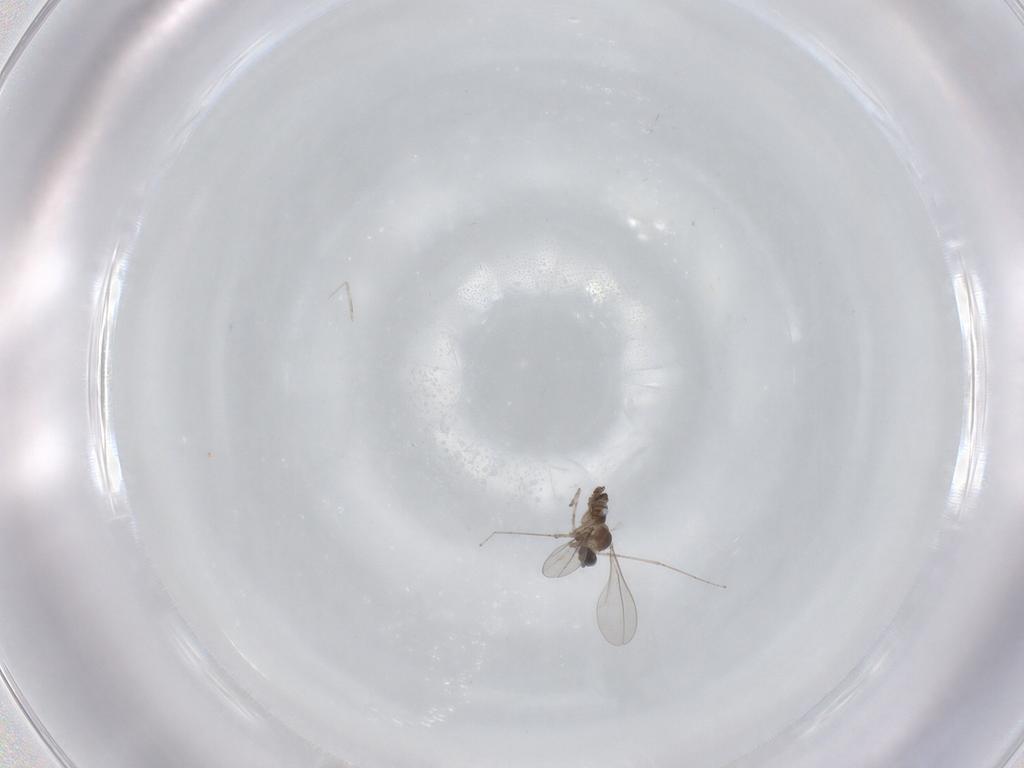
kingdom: Animalia
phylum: Arthropoda
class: Insecta
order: Diptera
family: Cecidomyiidae
